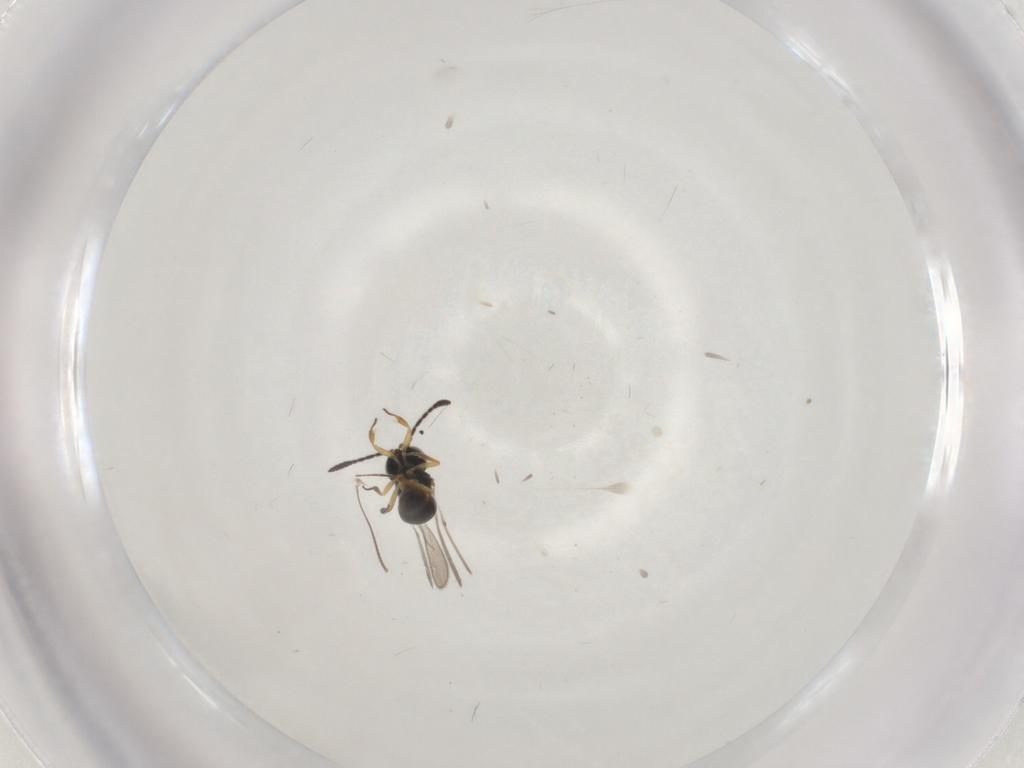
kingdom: Animalia
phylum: Arthropoda
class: Insecta
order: Hymenoptera
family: Scelionidae
